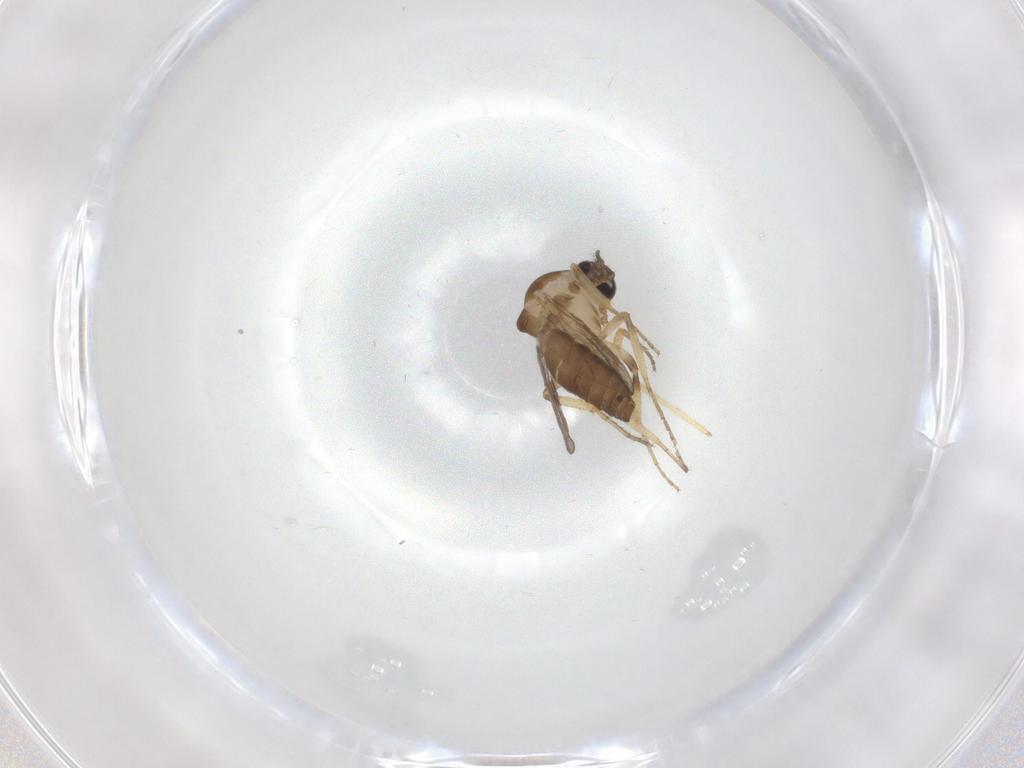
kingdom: Animalia
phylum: Arthropoda
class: Insecta
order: Diptera
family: Ceratopogonidae
